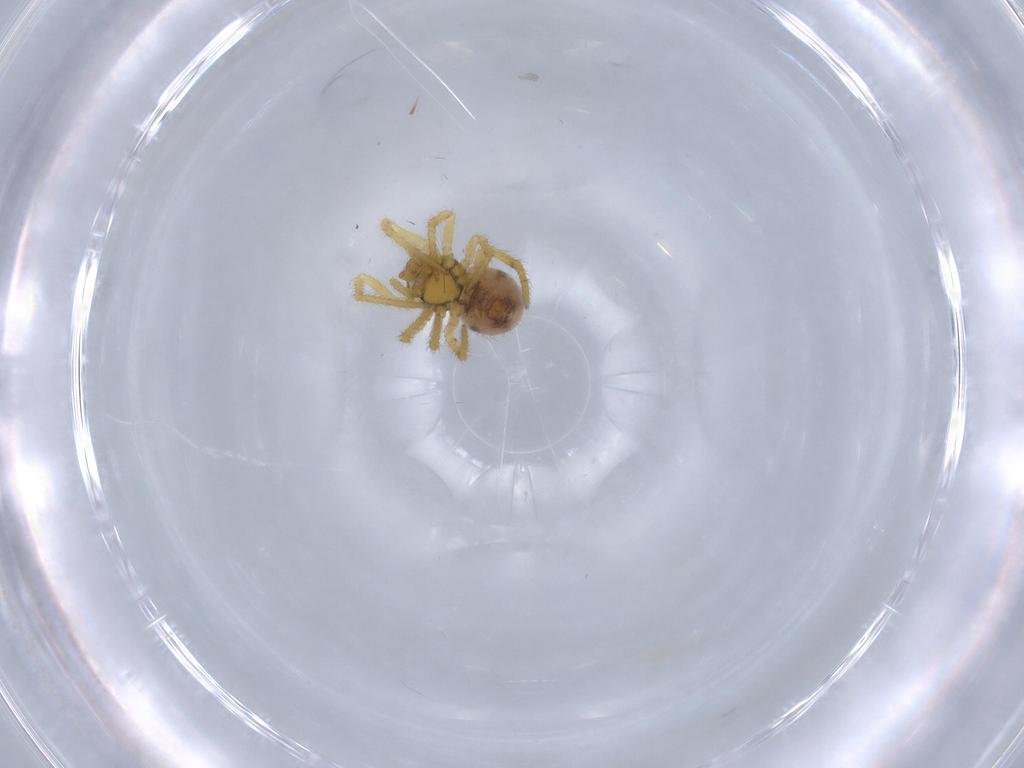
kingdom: Animalia
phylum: Arthropoda
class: Arachnida
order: Araneae
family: Theridiidae
